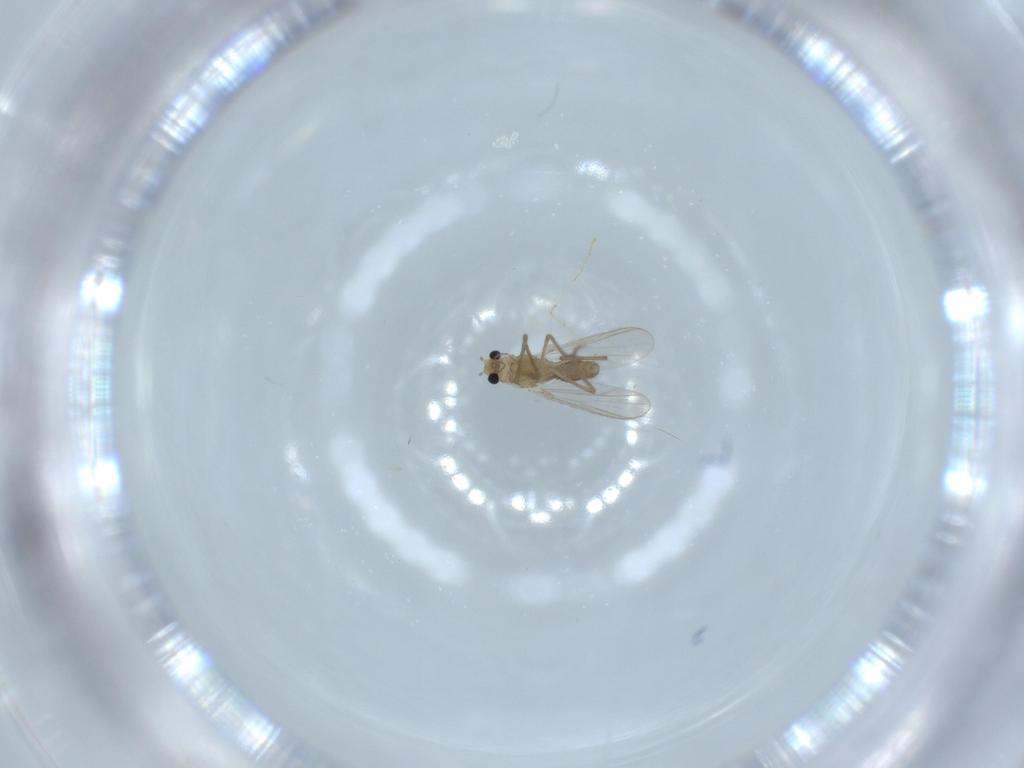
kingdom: Animalia
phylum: Arthropoda
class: Insecta
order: Diptera
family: Chironomidae
